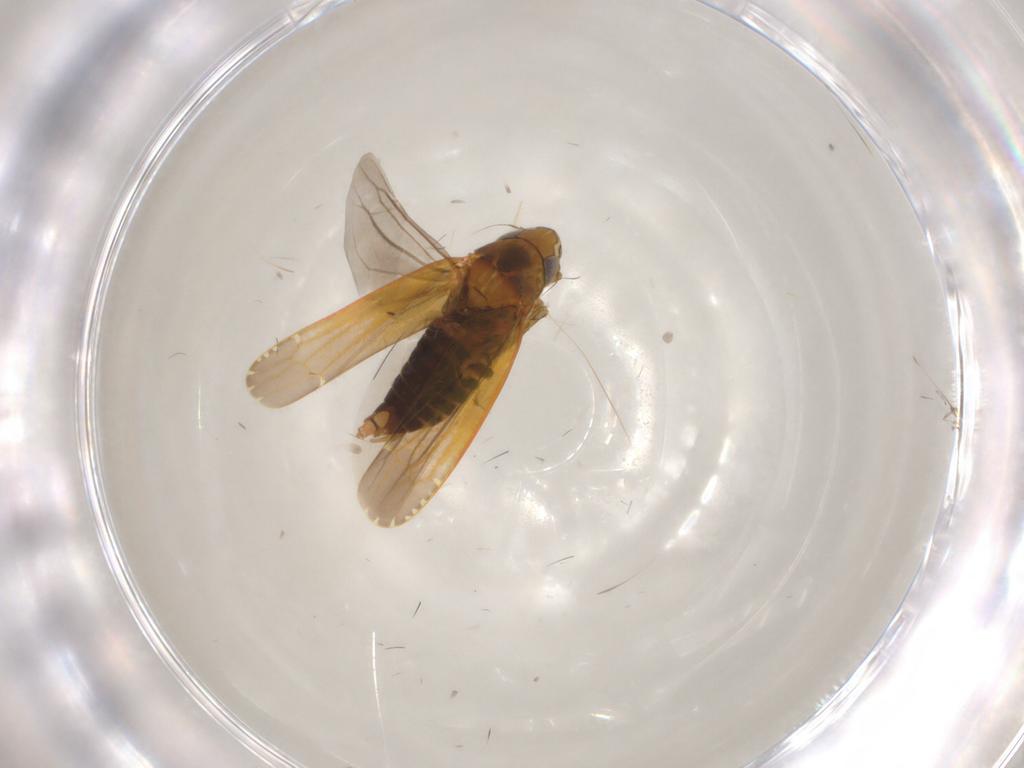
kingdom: Animalia
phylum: Arthropoda
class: Insecta
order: Hemiptera
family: Cicadellidae
